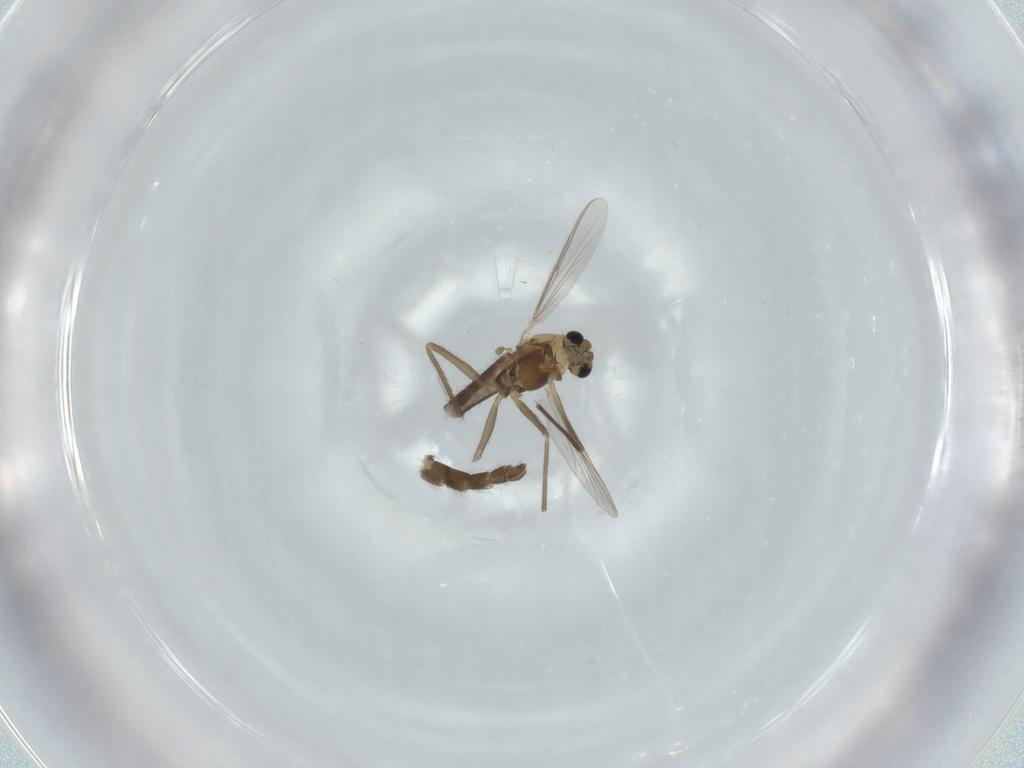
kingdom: Animalia
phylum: Arthropoda
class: Insecta
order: Diptera
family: Chironomidae
